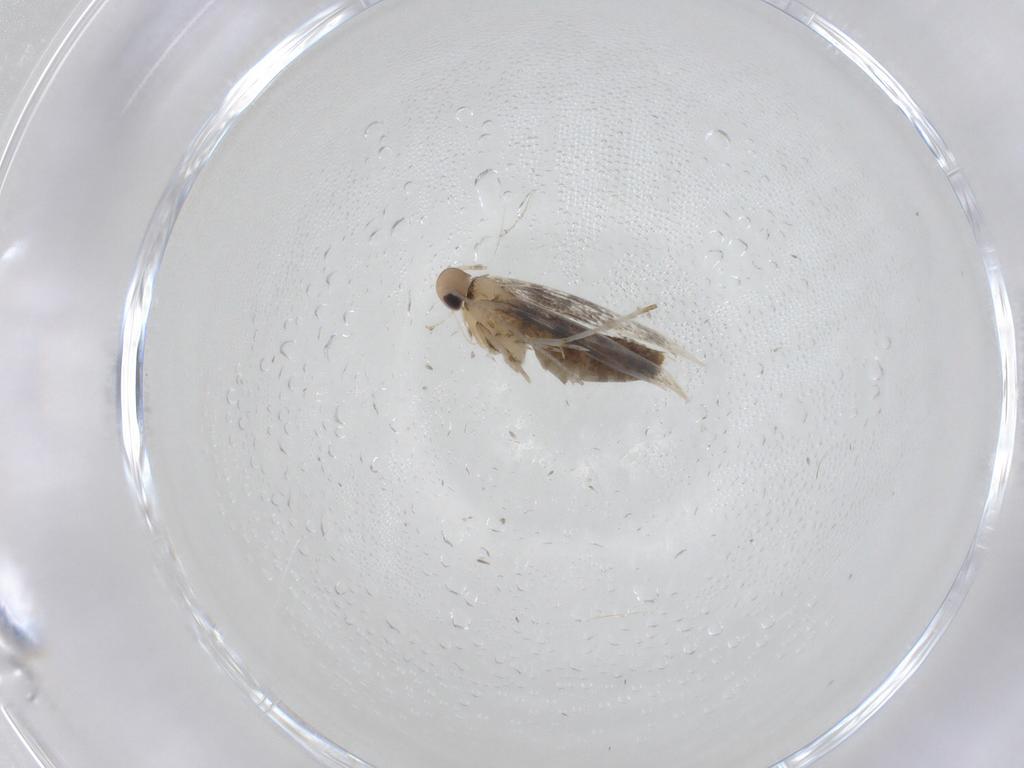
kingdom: Animalia
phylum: Arthropoda
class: Insecta
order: Lepidoptera
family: Gracillariidae
